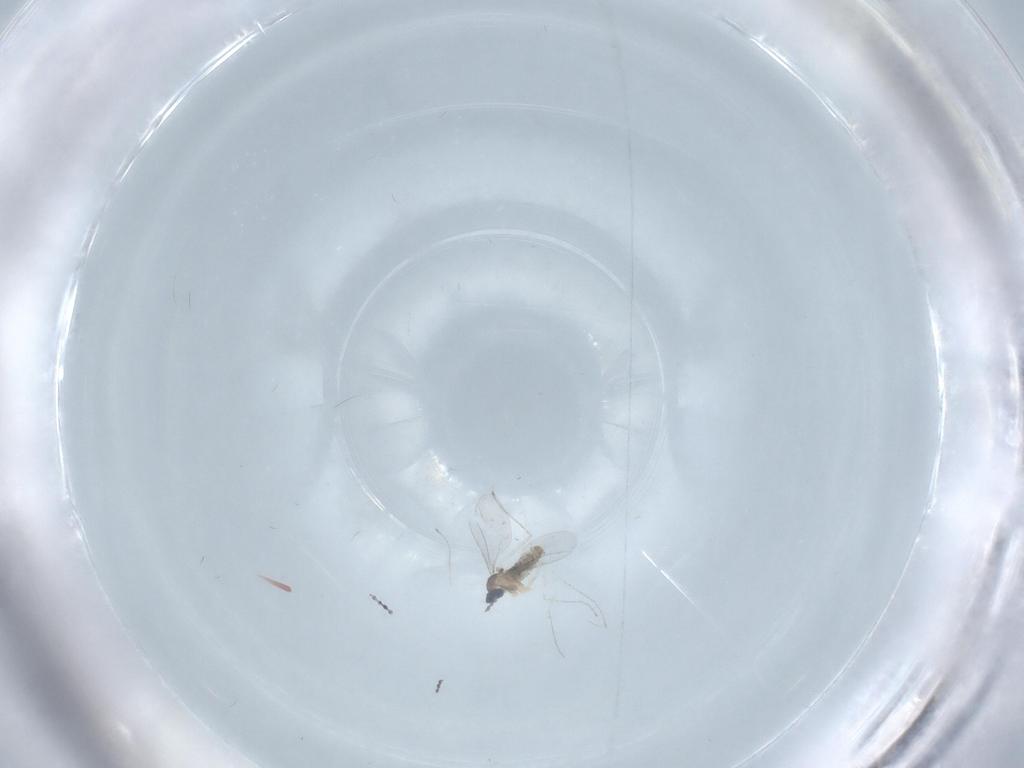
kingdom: Animalia
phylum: Arthropoda
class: Insecta
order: Diptera
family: Cecidomyiidae
